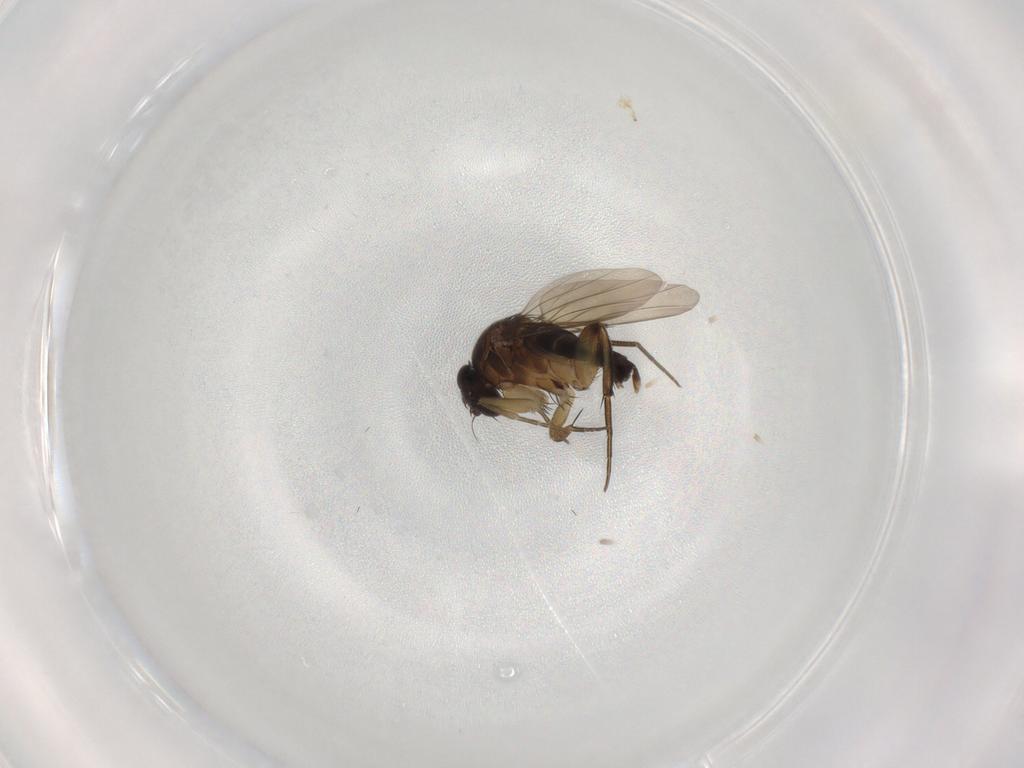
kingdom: Animalia
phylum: Arthropoda
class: Insecta
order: Diptera
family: Phoridae
